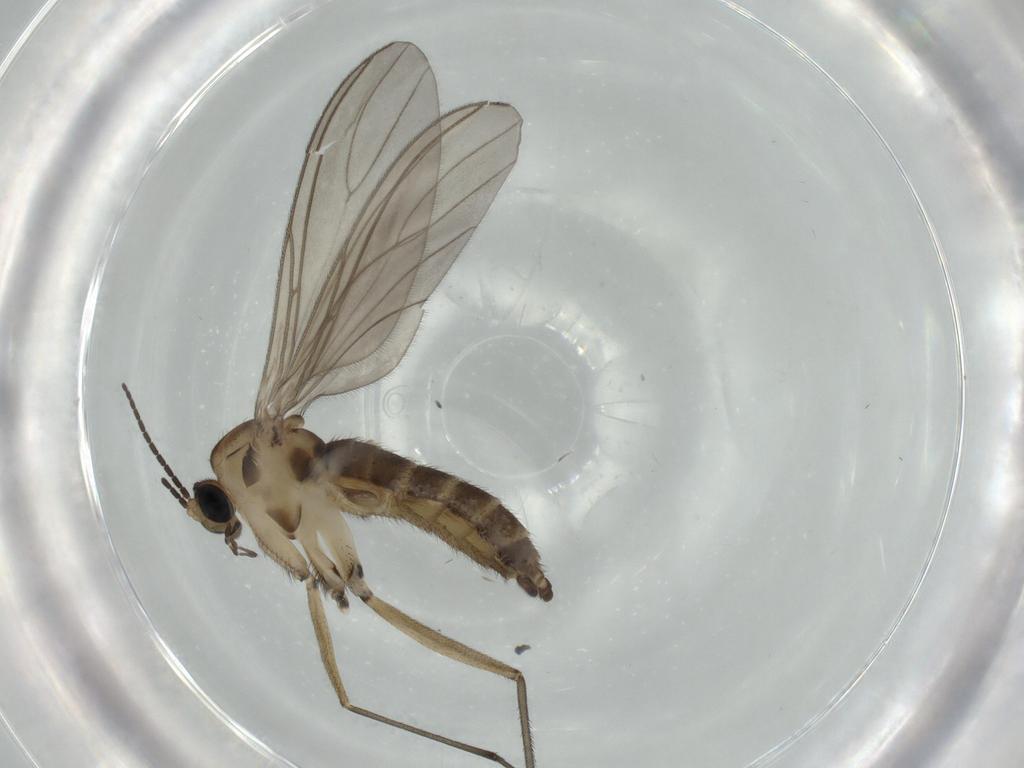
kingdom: Animalia
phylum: Arthropoda
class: Insecta
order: Diptera
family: Sciaridae
